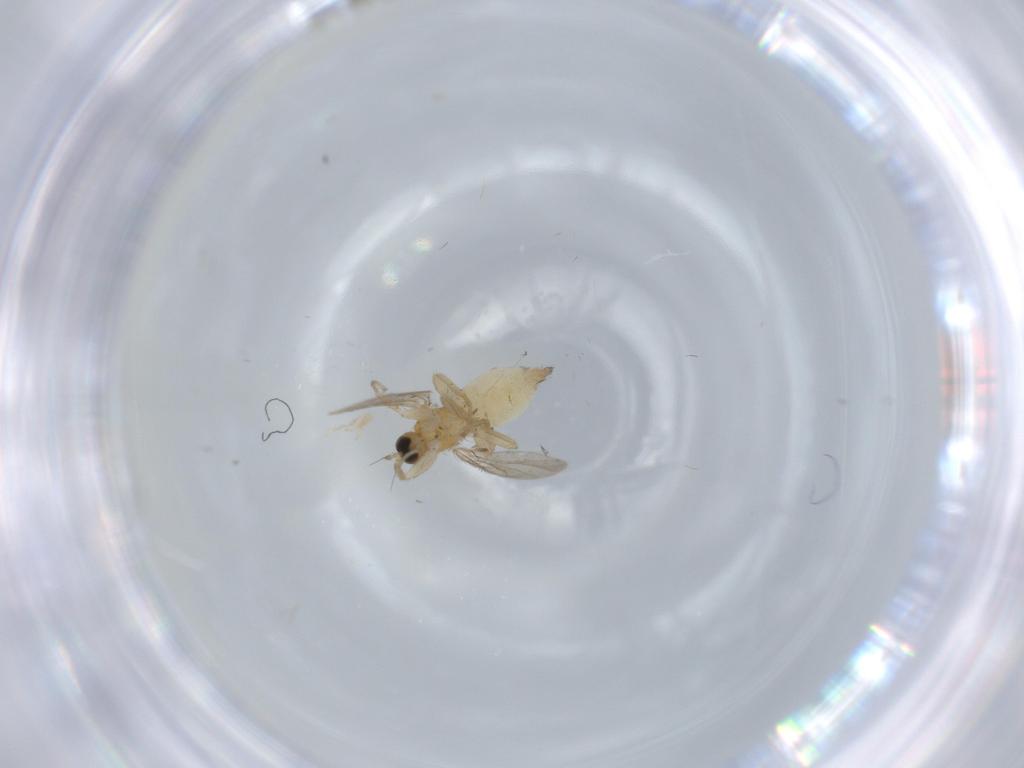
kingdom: Animalia
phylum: Arthropoda
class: Insecta
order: Diptera
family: Hybotidae
